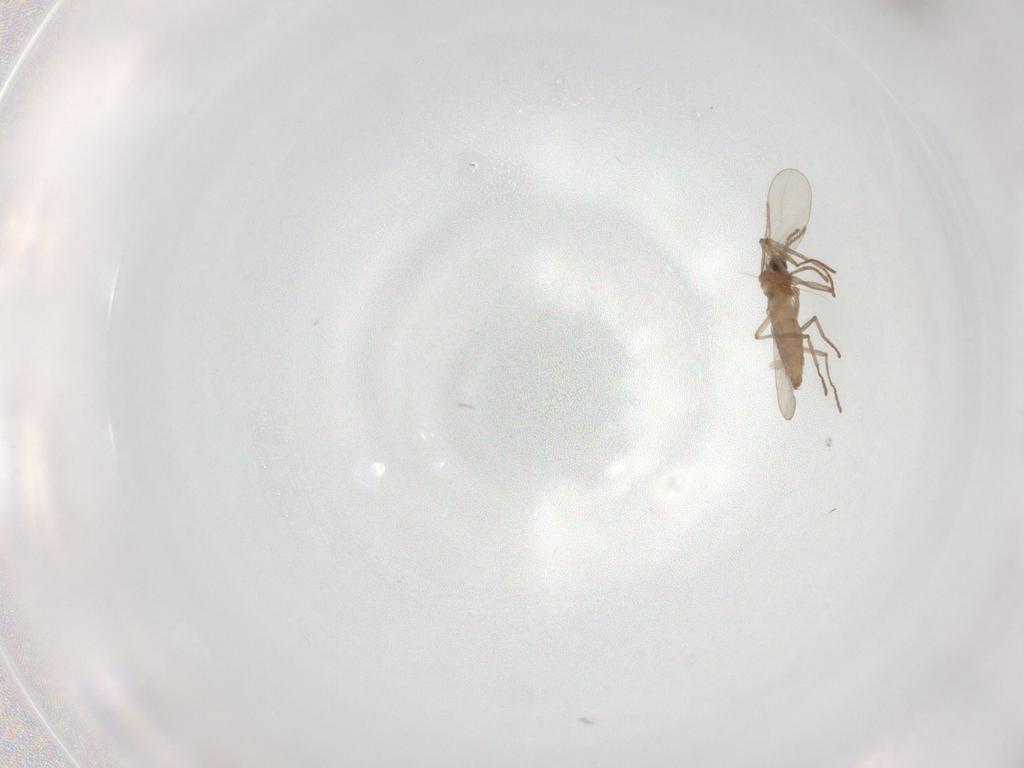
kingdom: Animalia
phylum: Arthropoda
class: Insecta
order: Diptera
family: Cecidomyiidae
